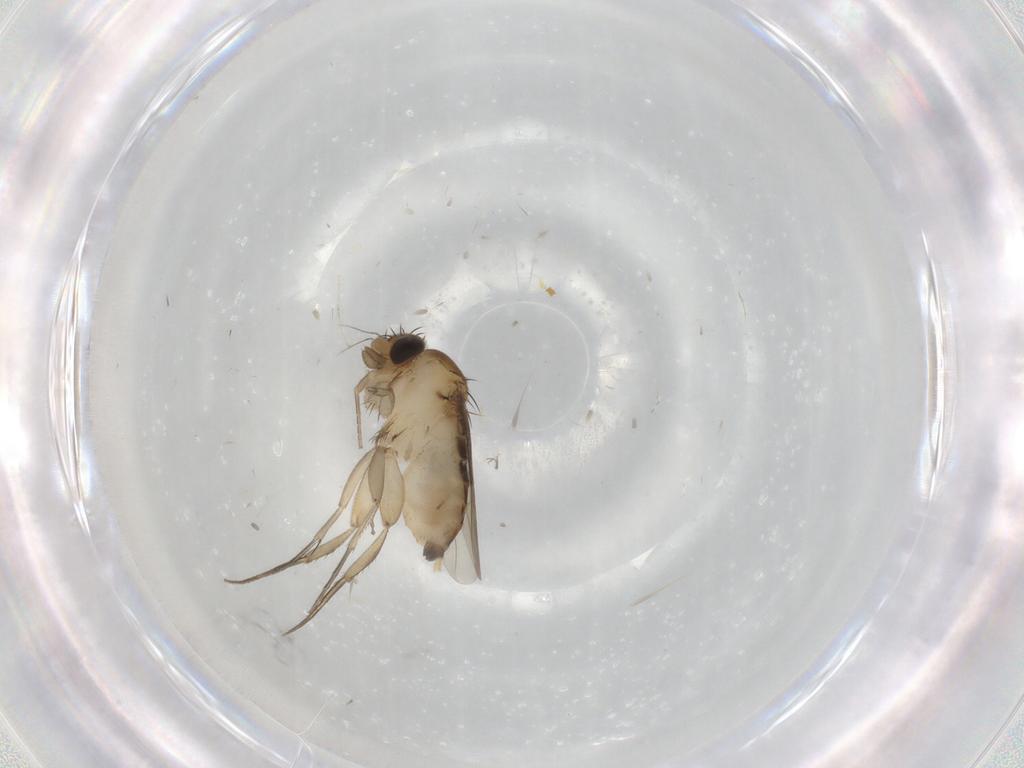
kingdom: Animalia
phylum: Arthropoda
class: Insecta
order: Diptera
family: Phoridae
